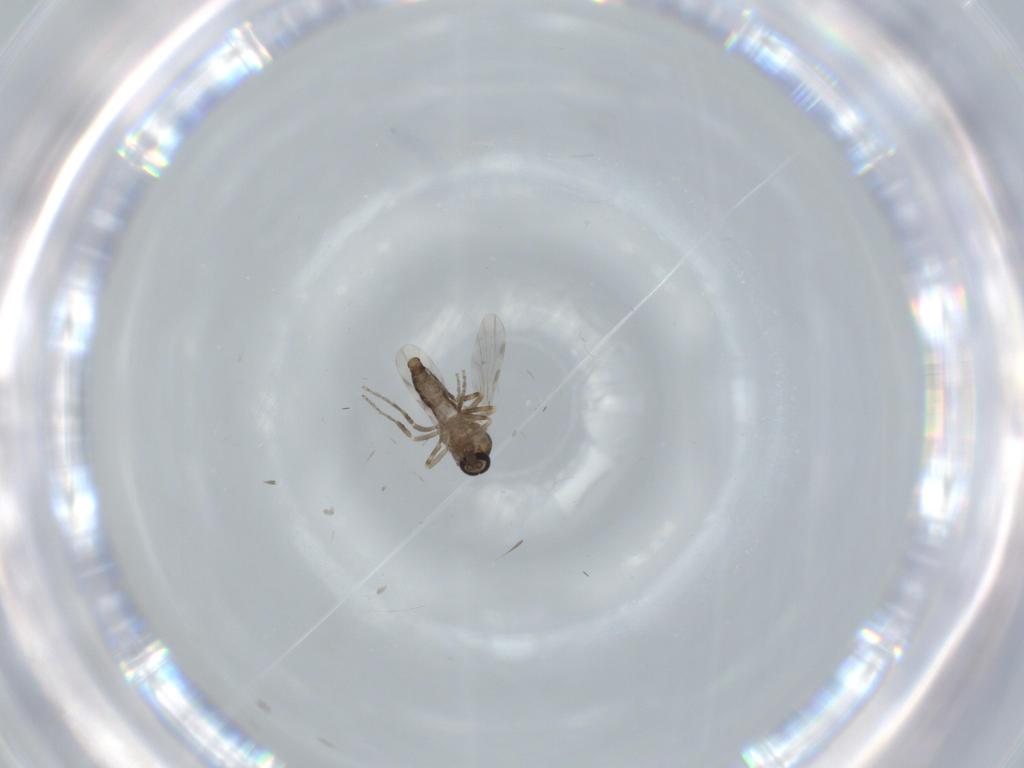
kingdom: Animalia
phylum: Arthropoda
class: Insecta
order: Diptera
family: Ceratopogonidae
